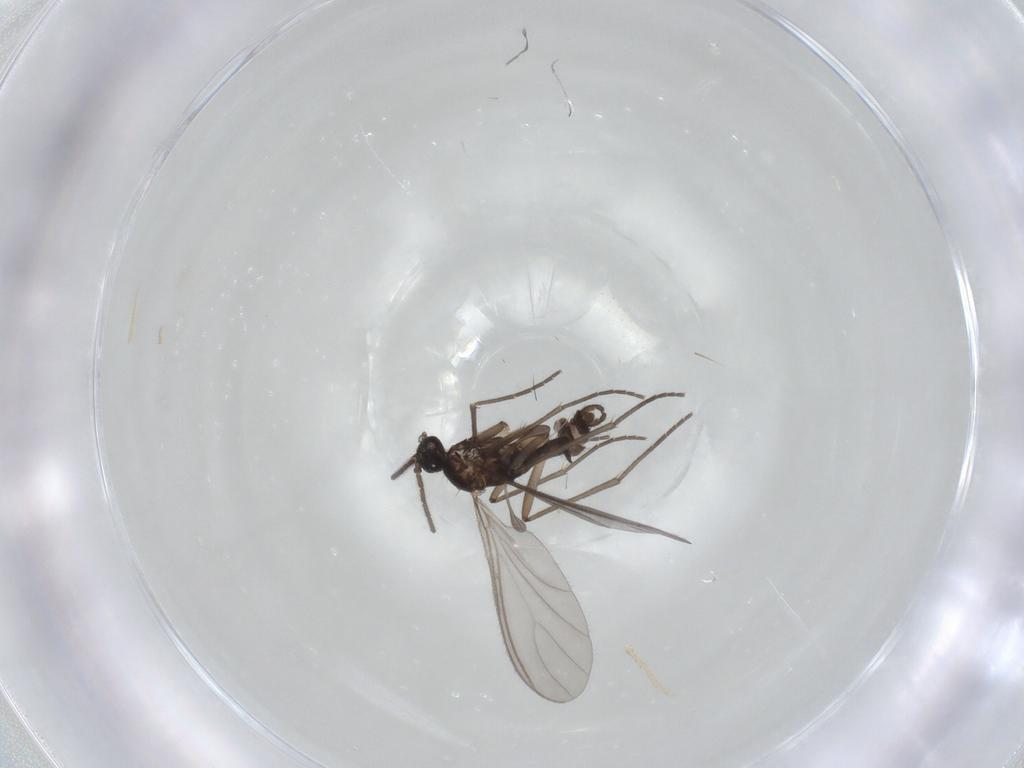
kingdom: Animalia
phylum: Arthropoda
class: Insecta
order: Diptera
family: Sciaridae
